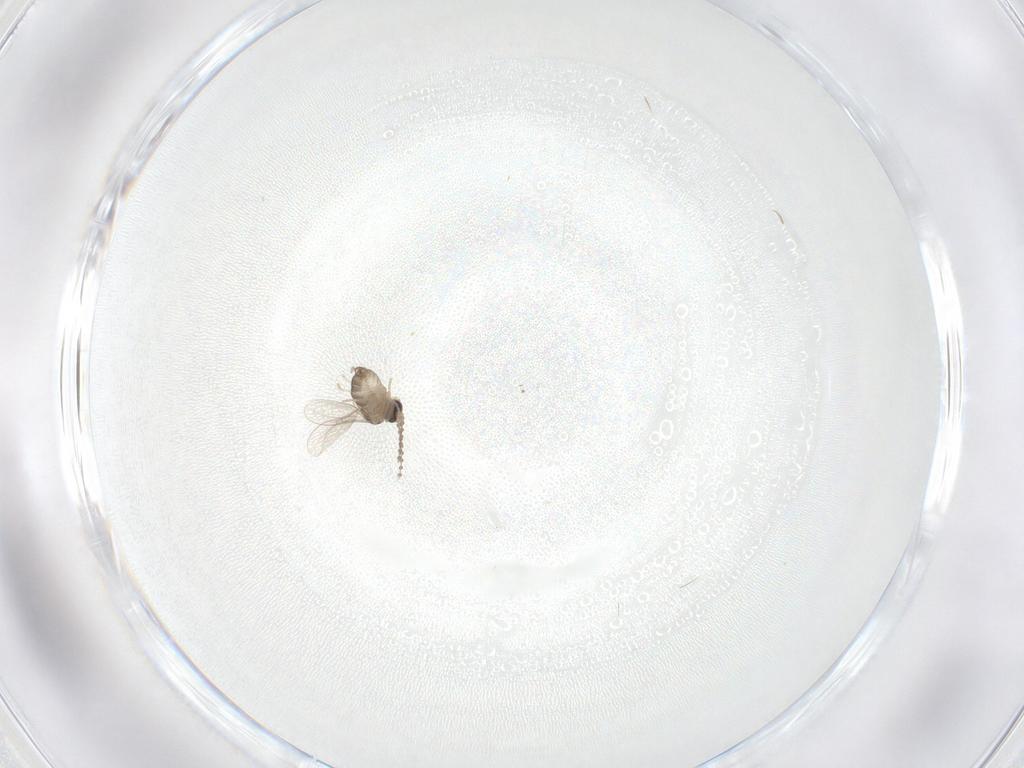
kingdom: Animalia
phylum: Arthropoda
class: Insecta
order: Diptera
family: Cecidomyiidae
